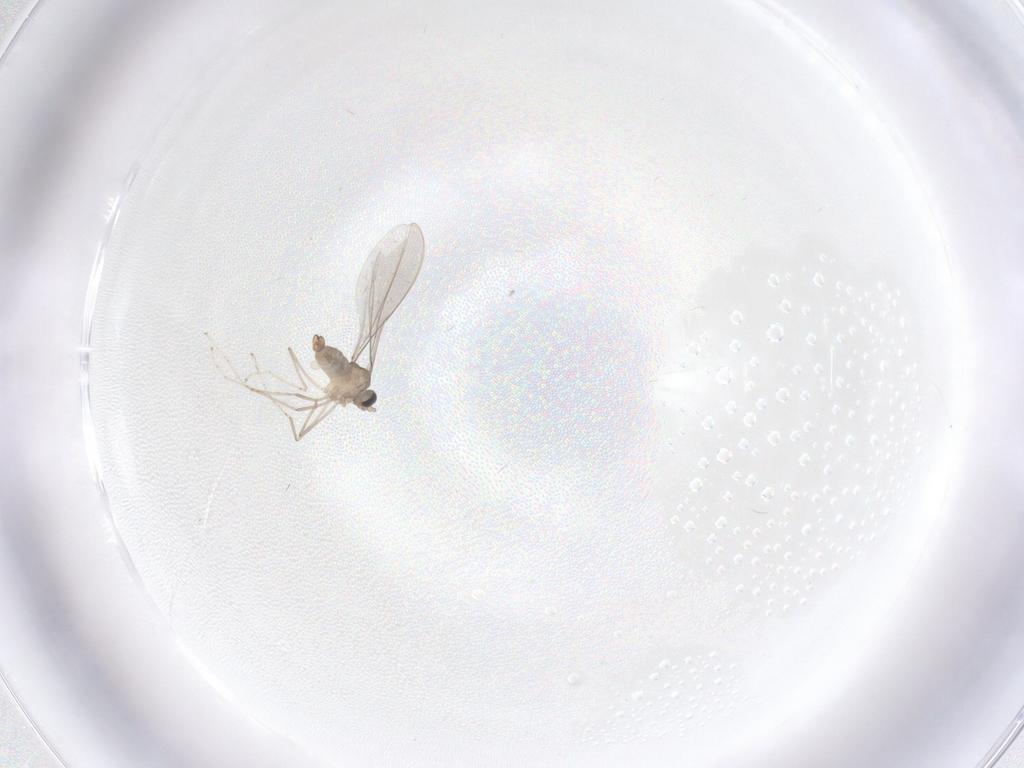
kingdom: Animalia
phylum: Arthropoda
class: Insecta
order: Diptera
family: Cecidomyiidae
